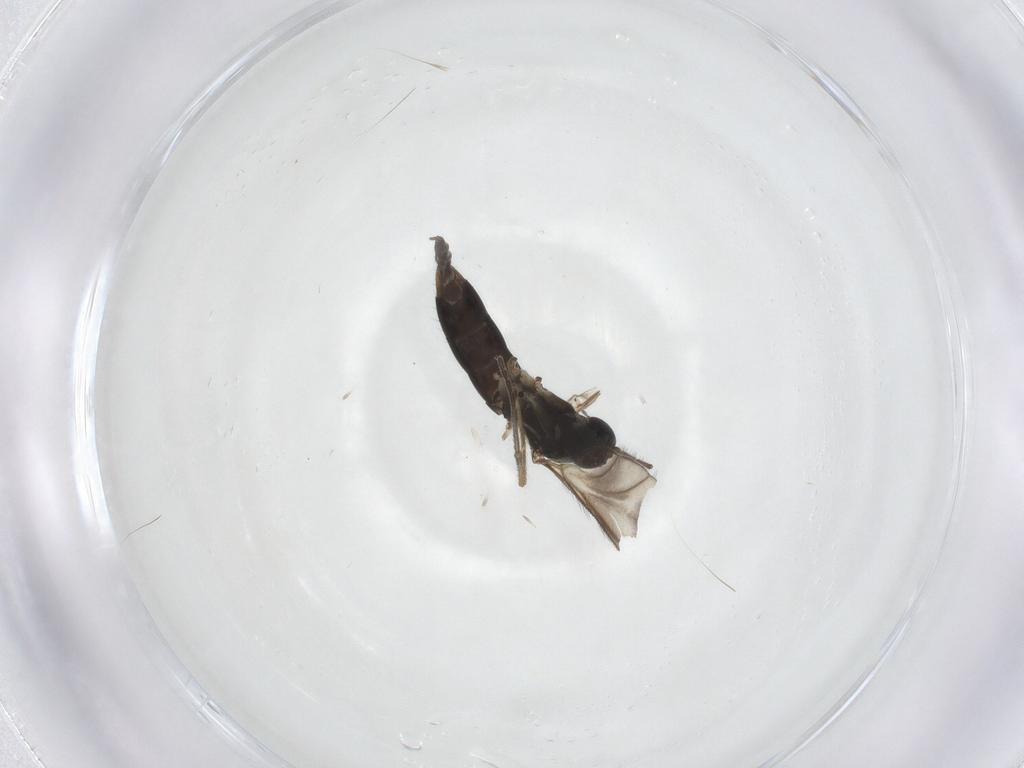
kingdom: Animalia
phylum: Arthropoda
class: Insecta
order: Diptera
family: Sciaridae
